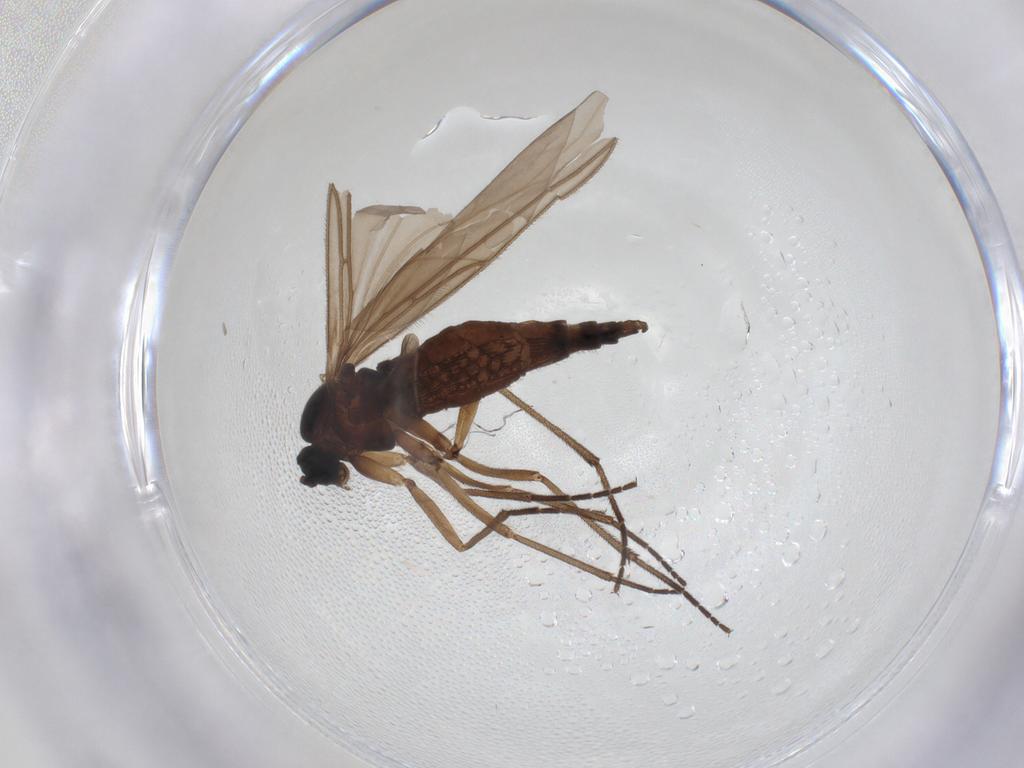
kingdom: Animalia
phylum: Arthropoda
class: Insecta
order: Diptera
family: Sciaridae
